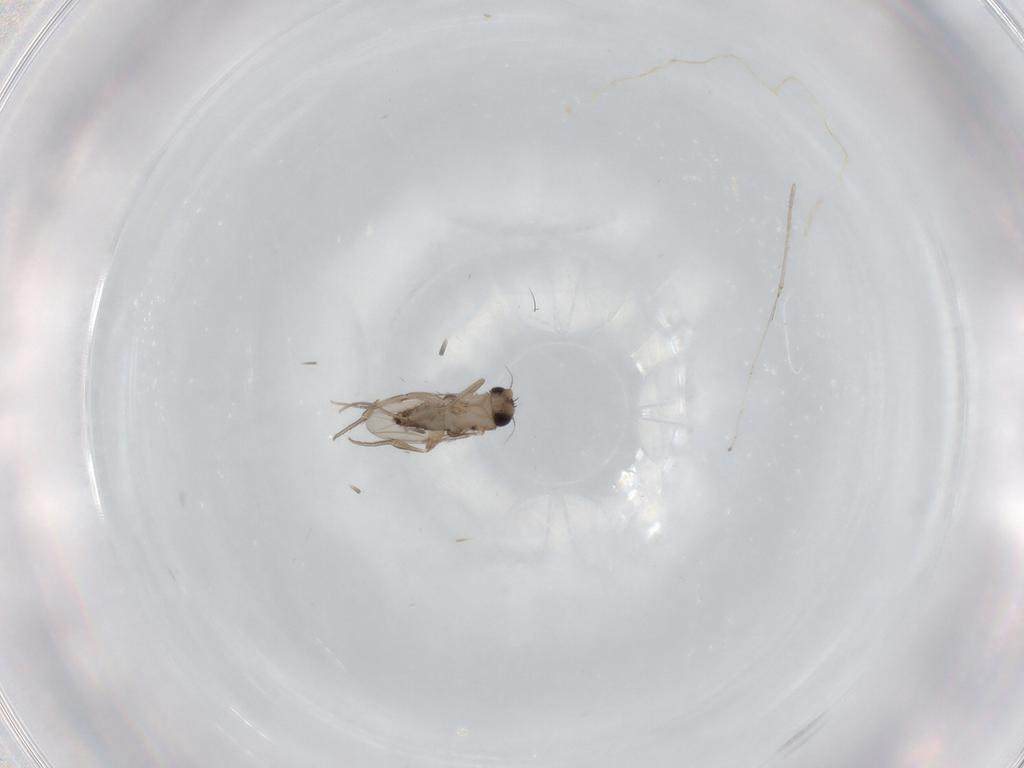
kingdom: Animalia
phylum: Arthropoda
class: Insecta
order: Diptera
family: Phoridae
